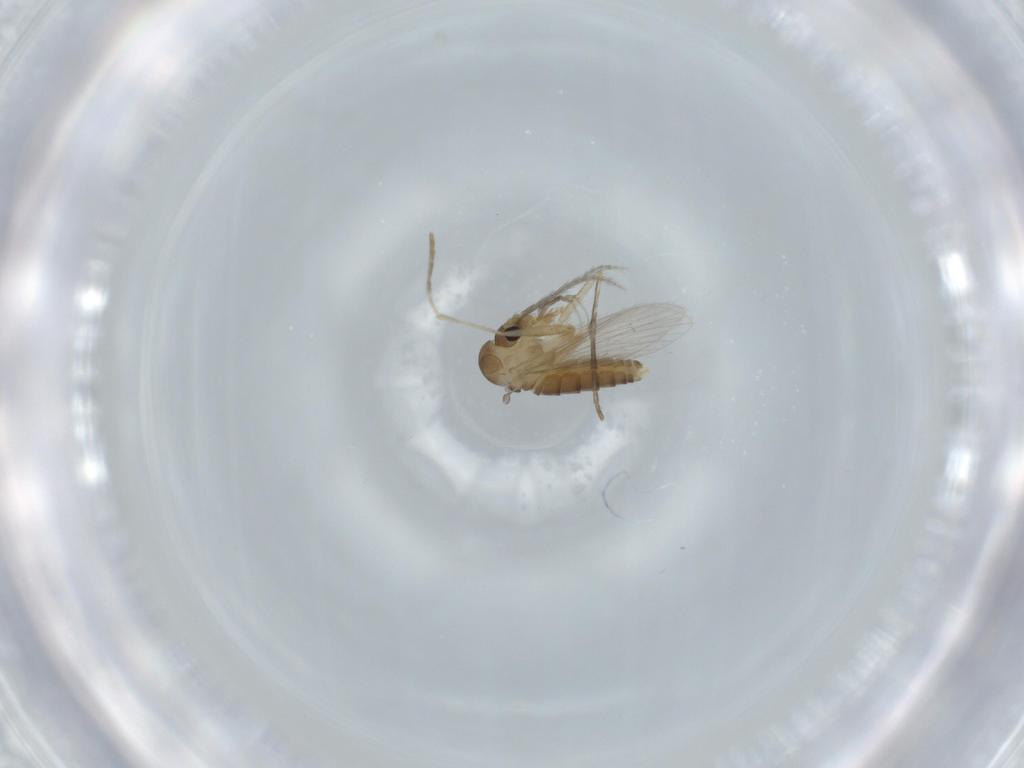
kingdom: Animalia
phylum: Arthropoda
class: Insecta
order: Diptera
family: Psychodidae
